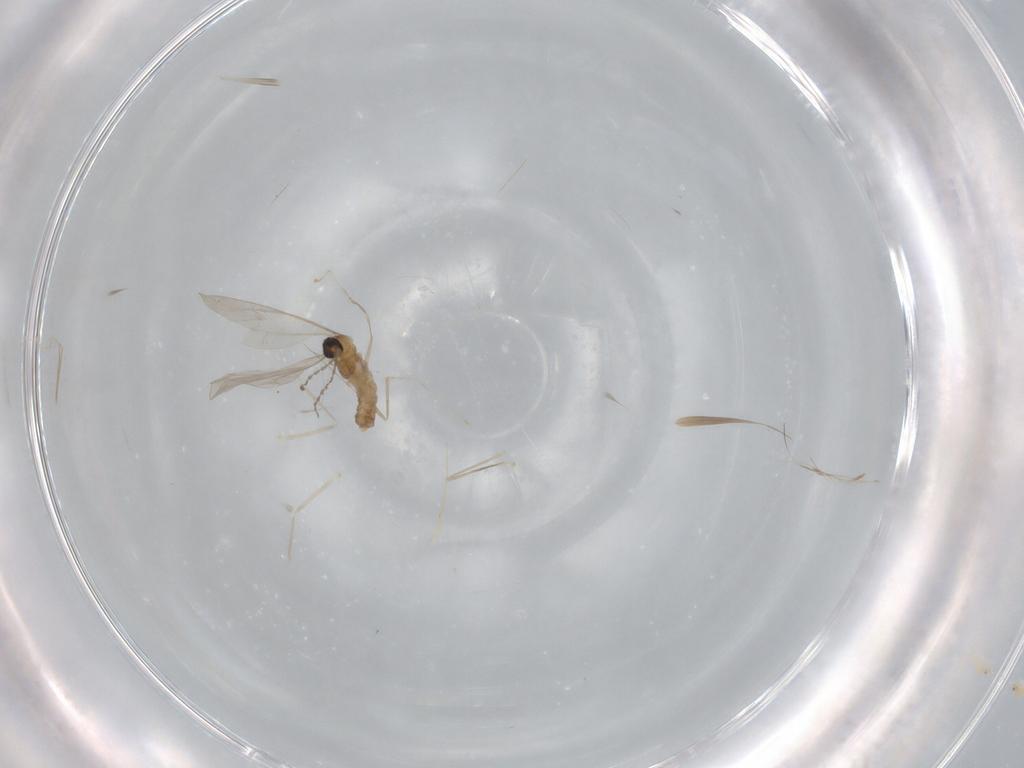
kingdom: Animalia
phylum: Arthropoda
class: Insecta
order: Diptera
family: Cecidomyiidae
